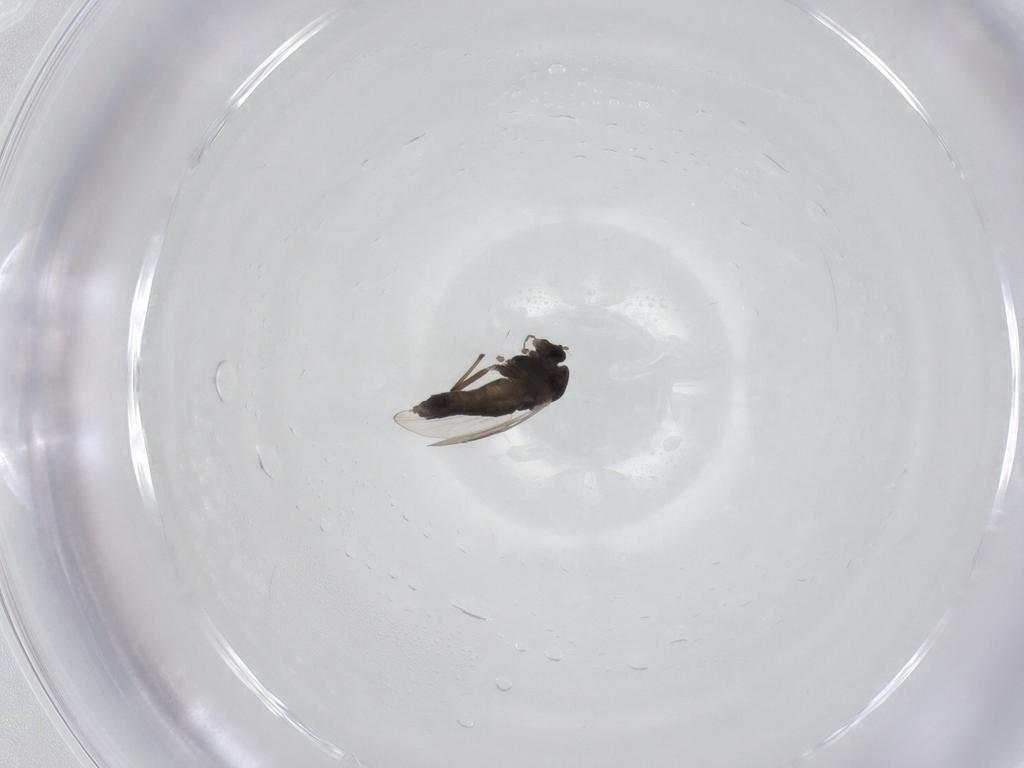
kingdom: Animalia
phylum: Arthropoda
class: Insecta
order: Diptera
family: Chironomidae
